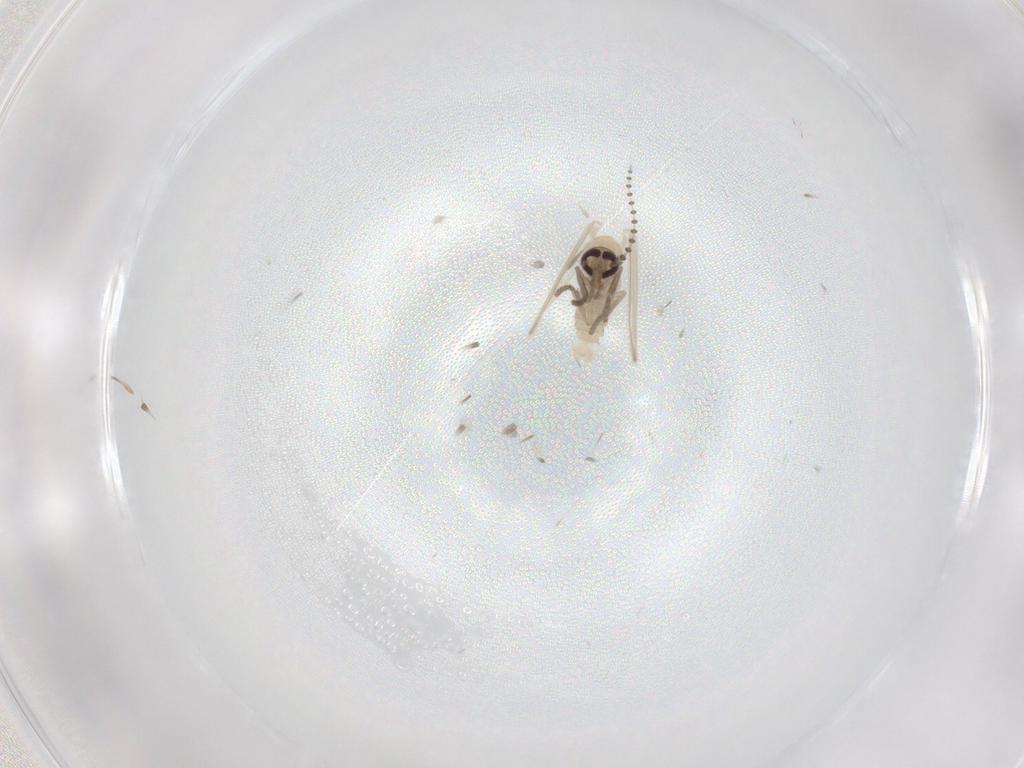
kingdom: Animalia
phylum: Arthropoda
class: Insecta
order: Diptera
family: Psychodidae
